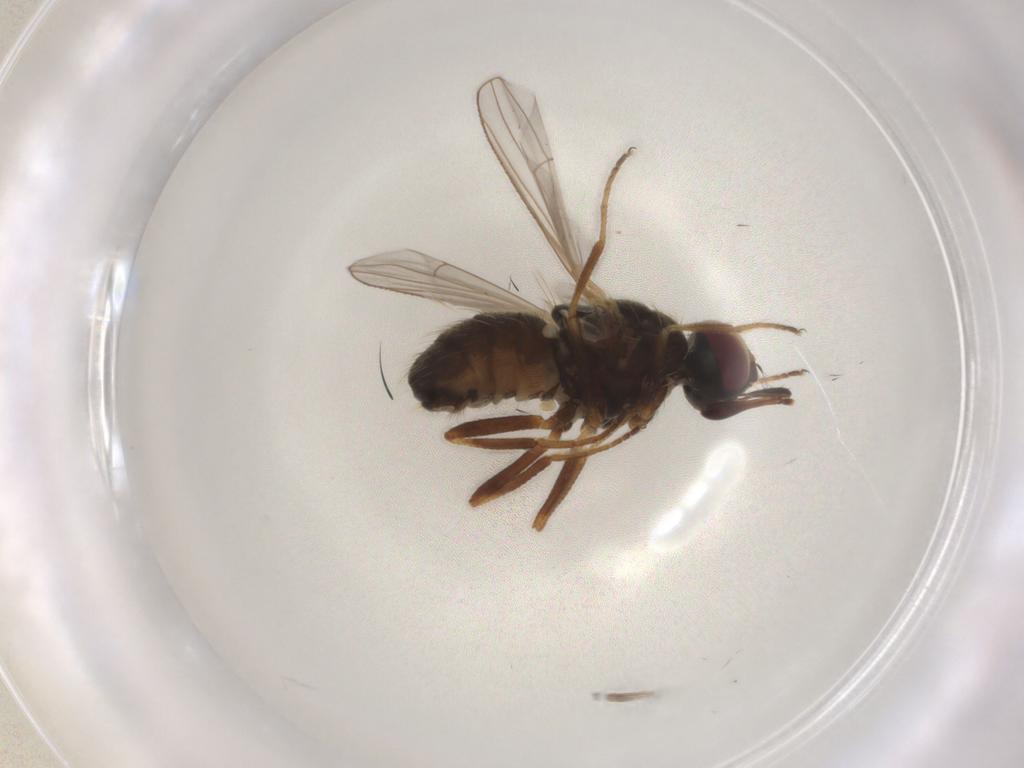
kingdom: Animalia
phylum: Arthropoda
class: Insecta
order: Diptera
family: Muscidae
